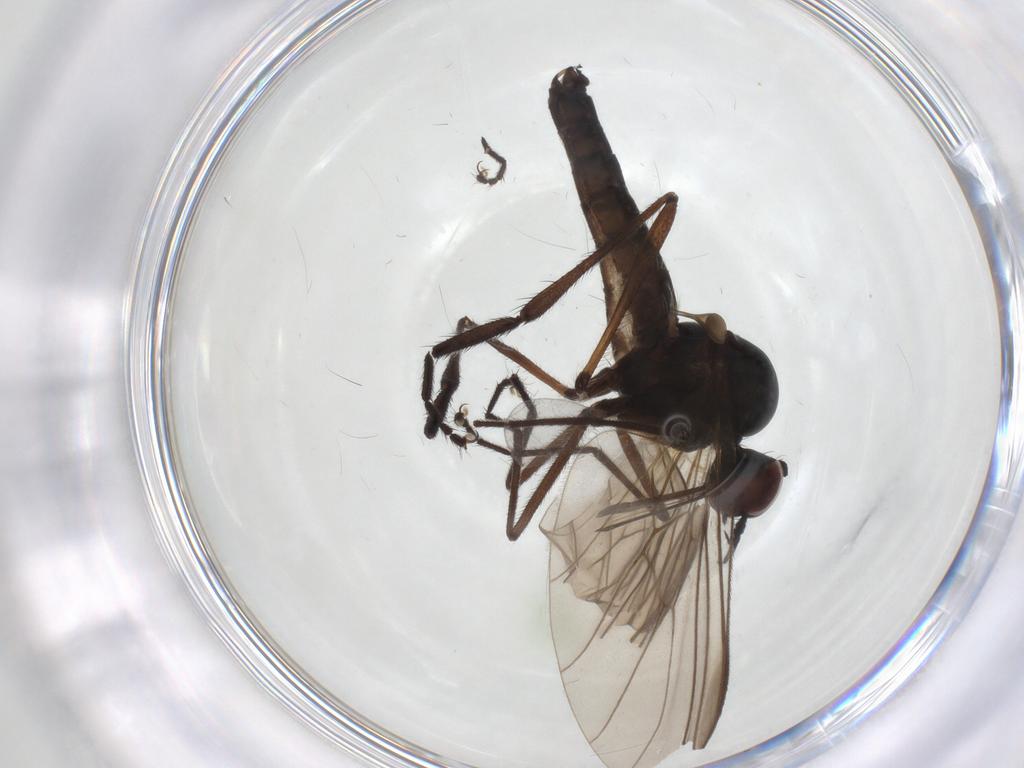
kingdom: Animalia
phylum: Arthropoda
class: Insecta
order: Diptera
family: Empididae
